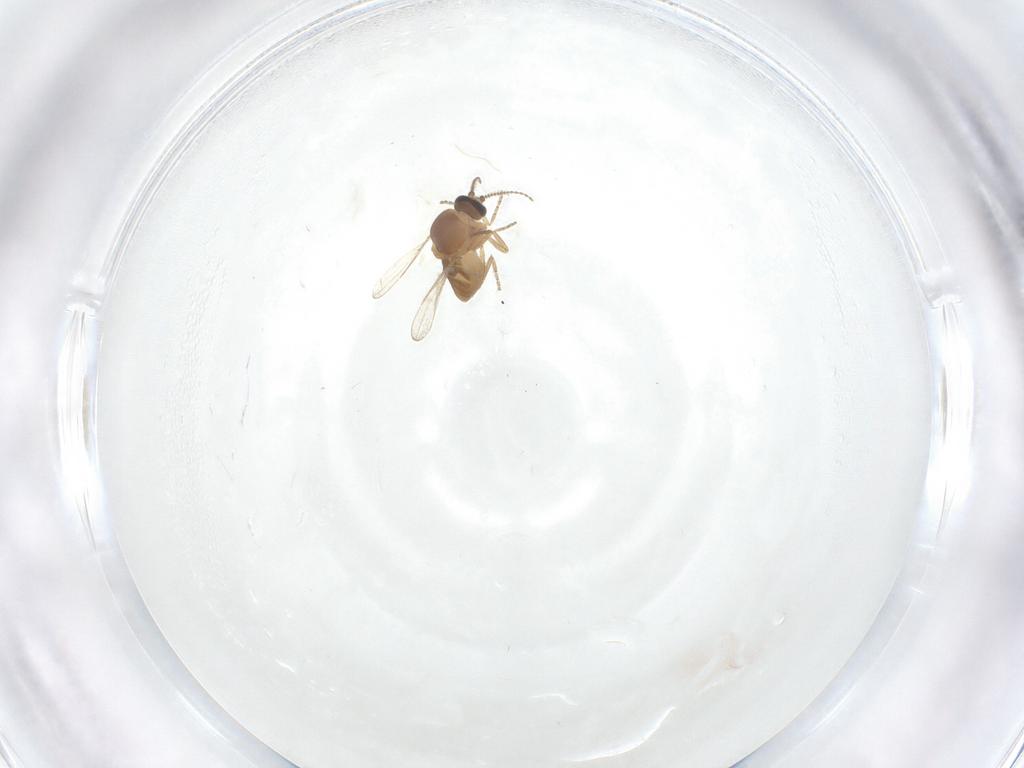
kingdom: Animalia
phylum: Arthropoda
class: Insecta
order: Diptera
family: Ceratopogonidae
